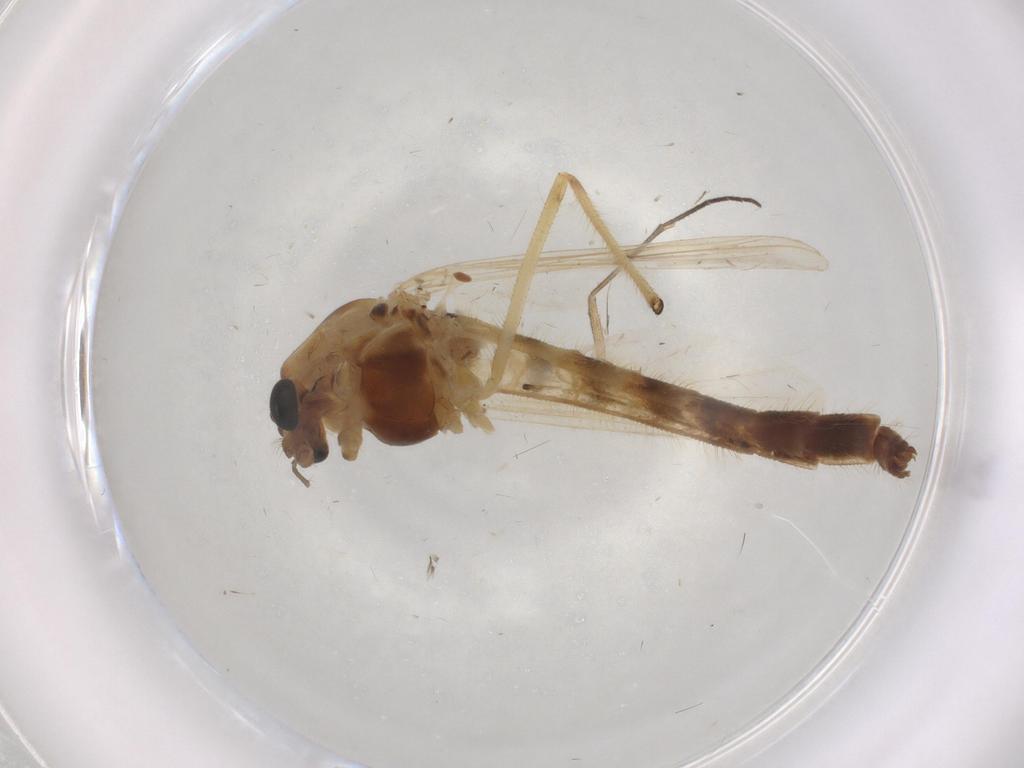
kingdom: Animalia
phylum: Arthropoda
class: Insecta
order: Diptera
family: Phoridae
